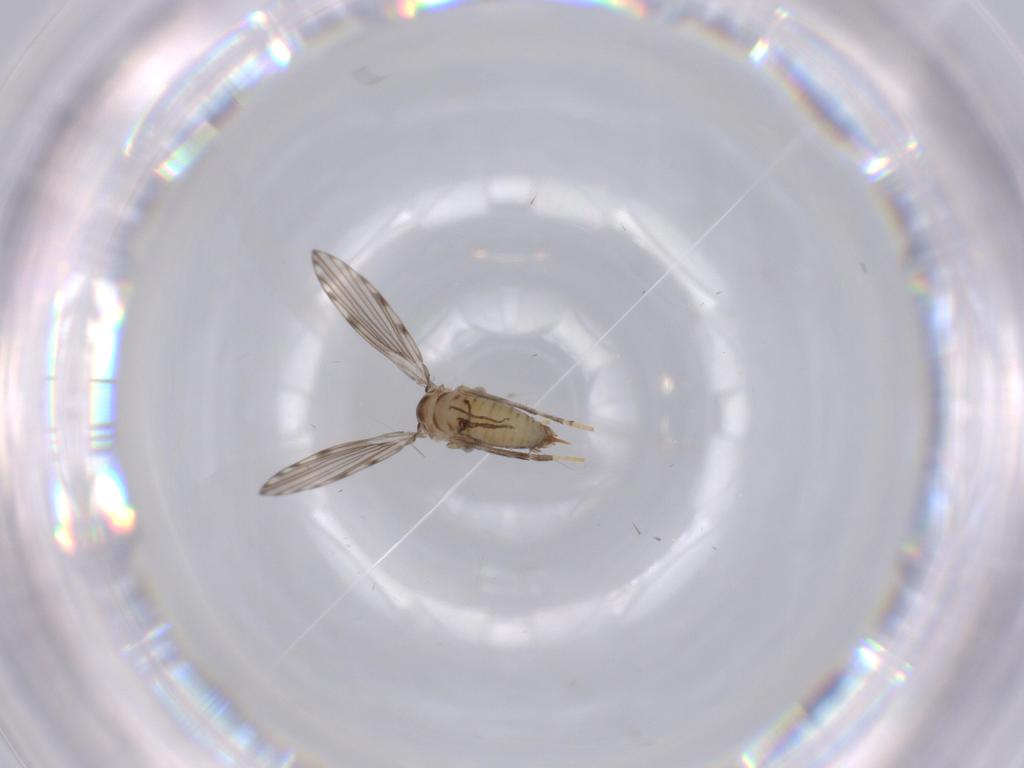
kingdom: Animalia
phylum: Arthropoda
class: Insecta
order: Diptera
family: Psychodidae
